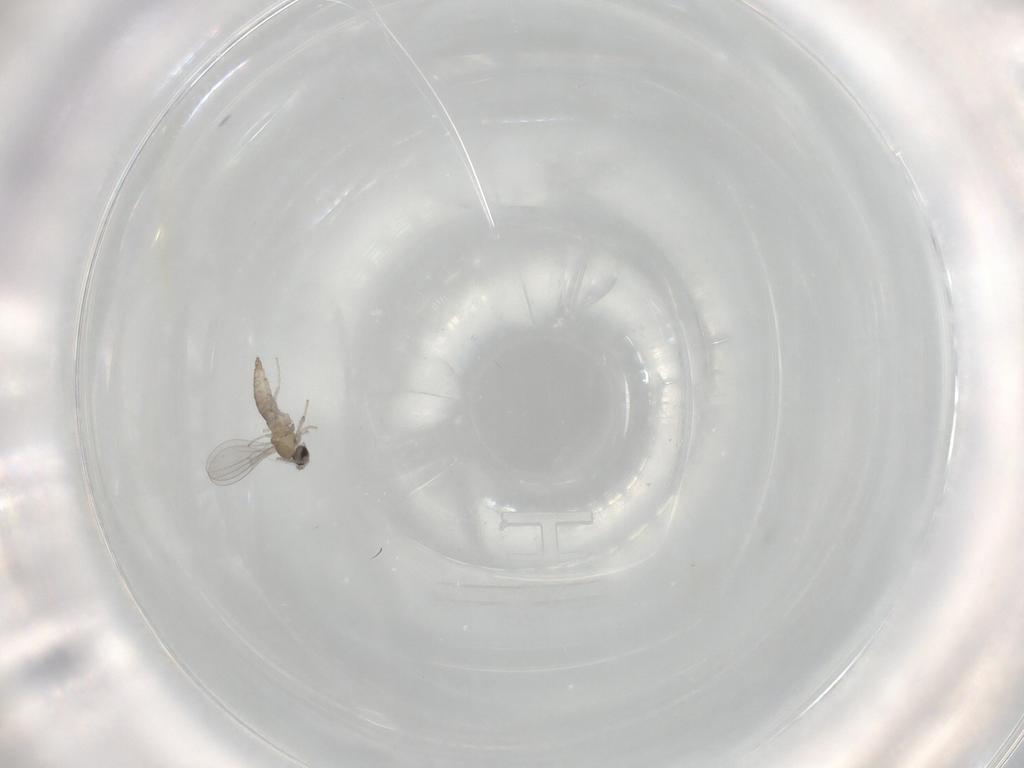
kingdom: Animalia
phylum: Arthropoda
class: Insecta
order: Diptera
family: Cecidomyiidae
